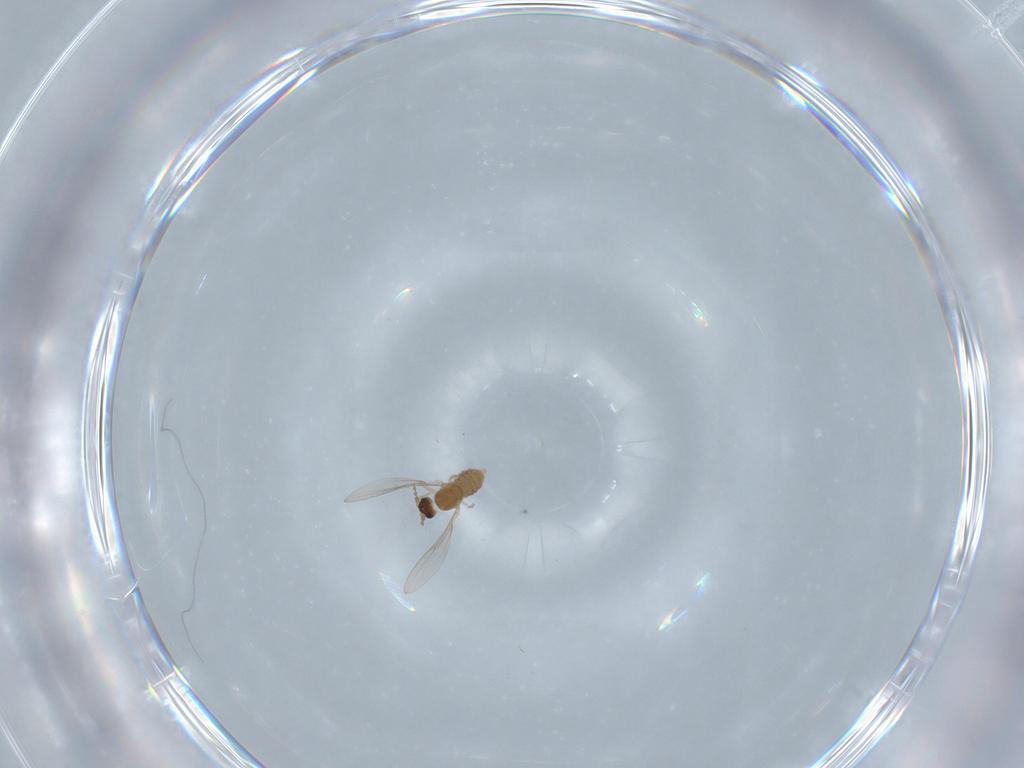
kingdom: Animalia
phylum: Arthropoda
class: Insecta
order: Diptera
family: Cecidomyiidae
